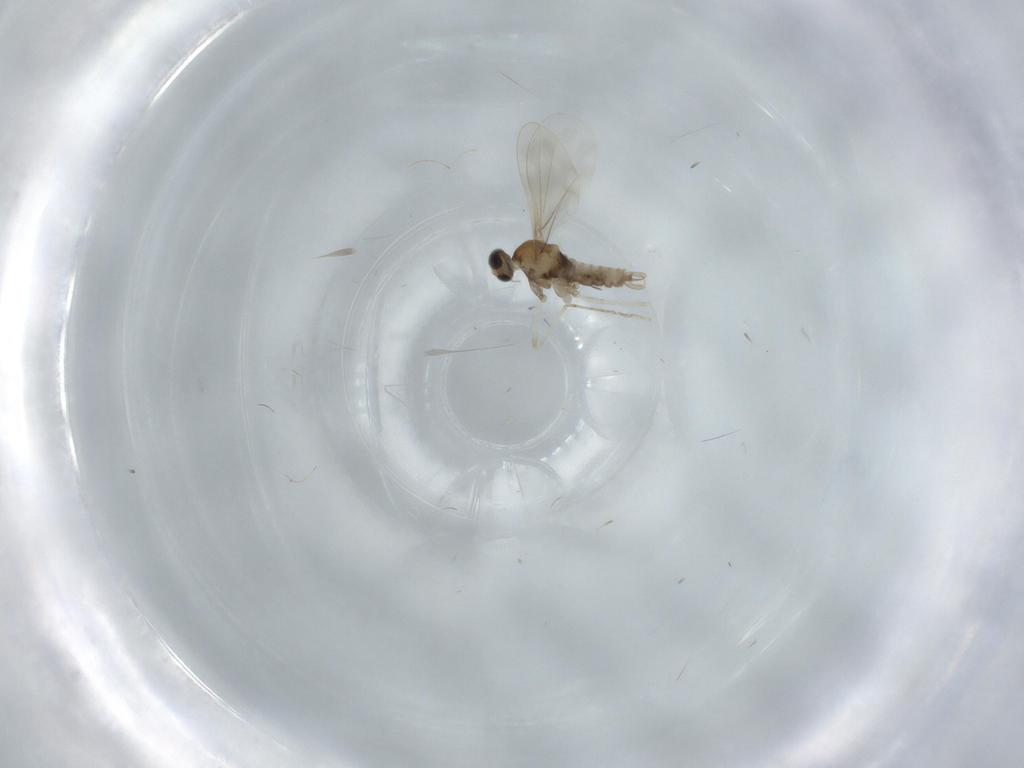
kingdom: Animalia
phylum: Arthropoda
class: Insecta
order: Diptera
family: Cecidomyiidae
